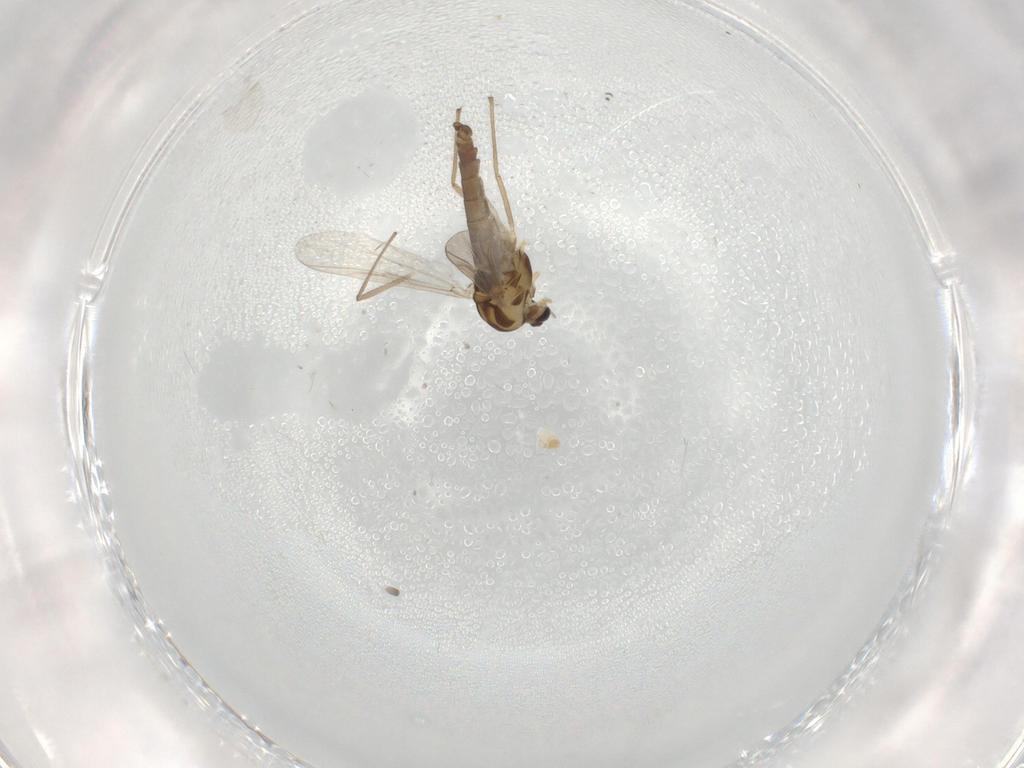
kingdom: Animalia
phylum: Arthropoda
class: Insecta
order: Diptera
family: Chironomidae
